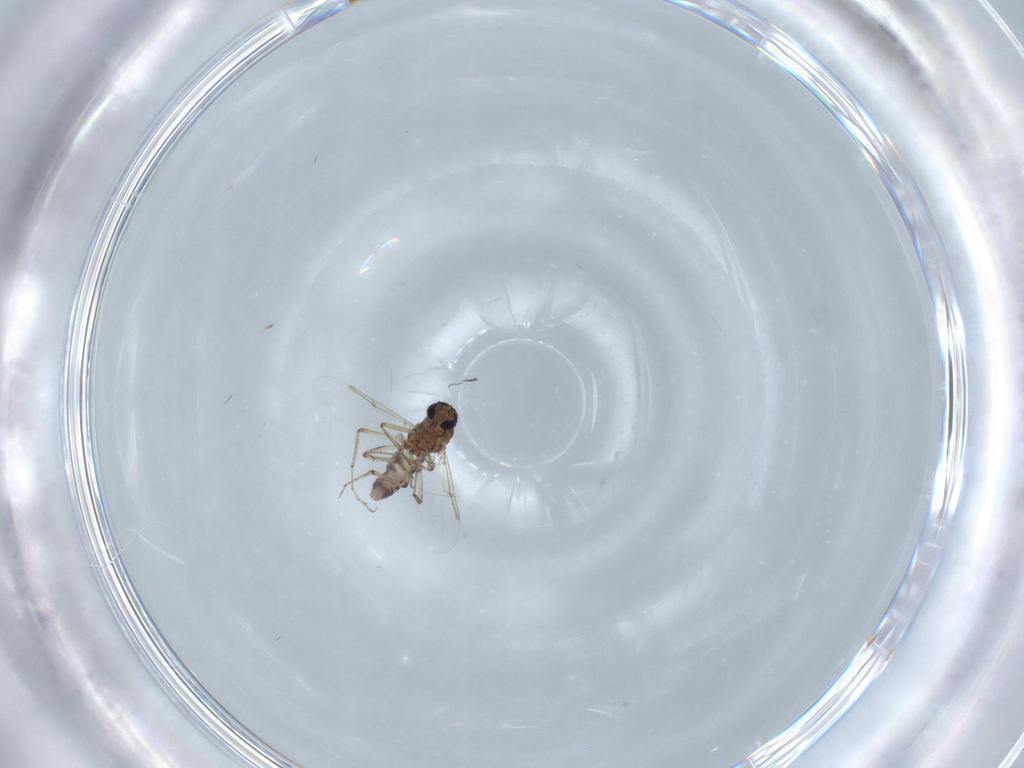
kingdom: Animalia
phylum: Arthropoda
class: Insecta
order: Diptera
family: Ceratopogonidae
